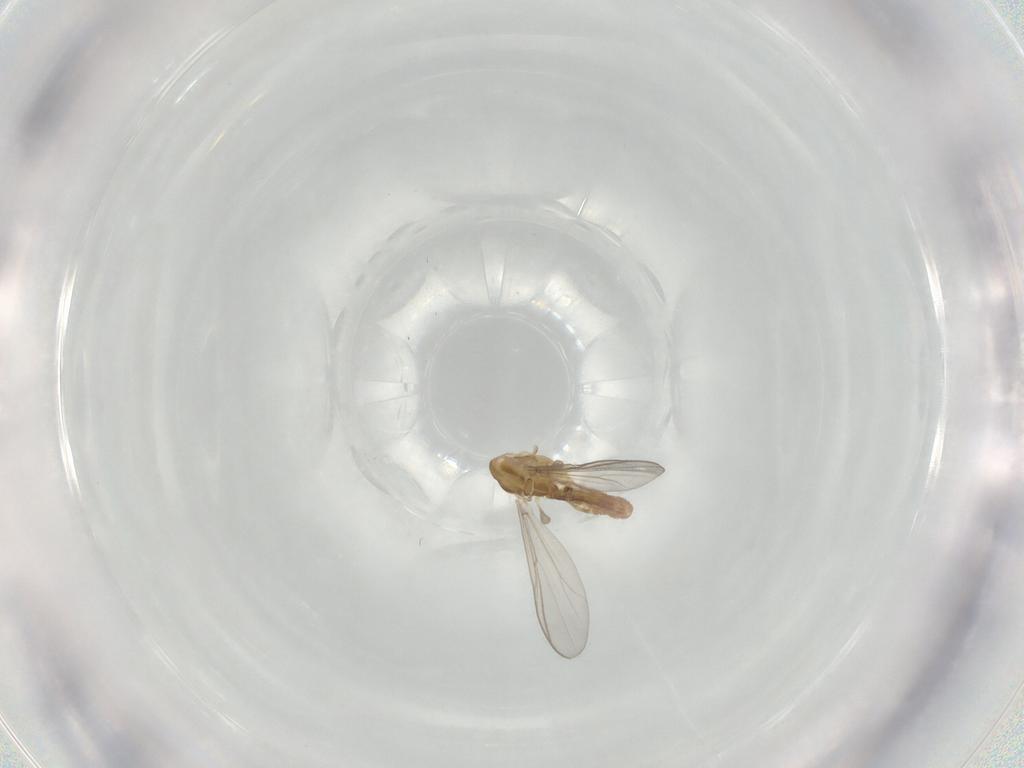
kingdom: Animalia
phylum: Arthropoda
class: Insecta
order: Diptera
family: Chironomidae
